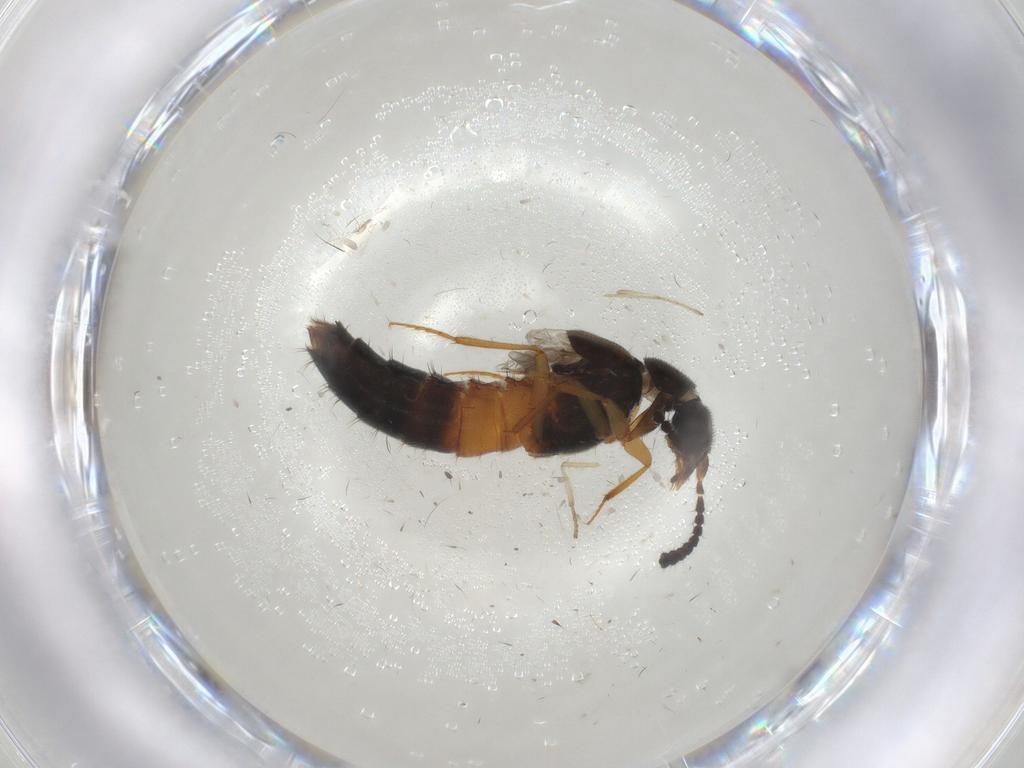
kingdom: Animalia
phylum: Arthropoda
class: Insecta
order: Coleoptera
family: Staphylinidae
